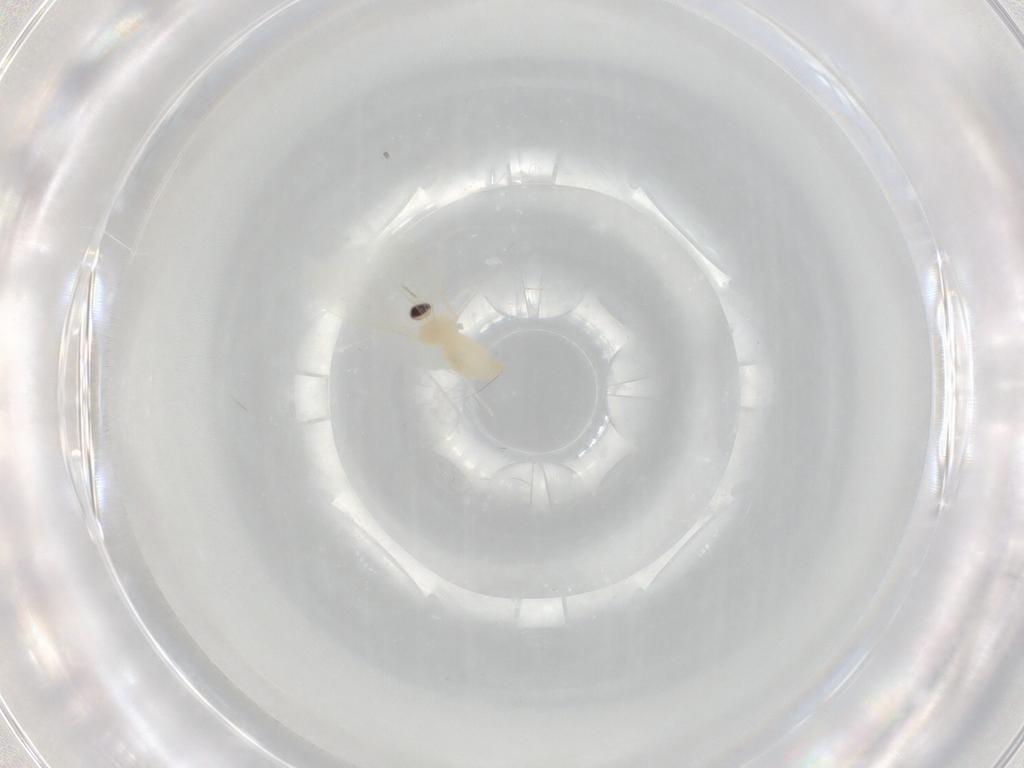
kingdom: Animalia
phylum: Arthropoda
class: Insecta
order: Diptera
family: Cecidomyiidae
